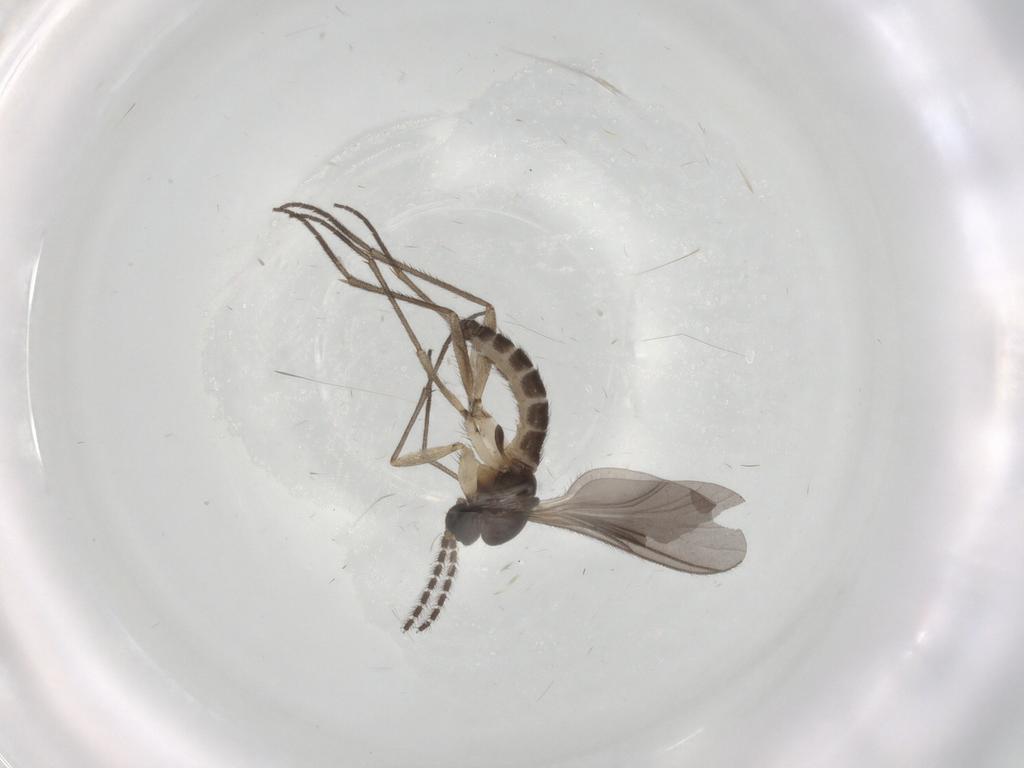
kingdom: Animalia
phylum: Arthropoda
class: Insecta
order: Diptera
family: Sciaridae
